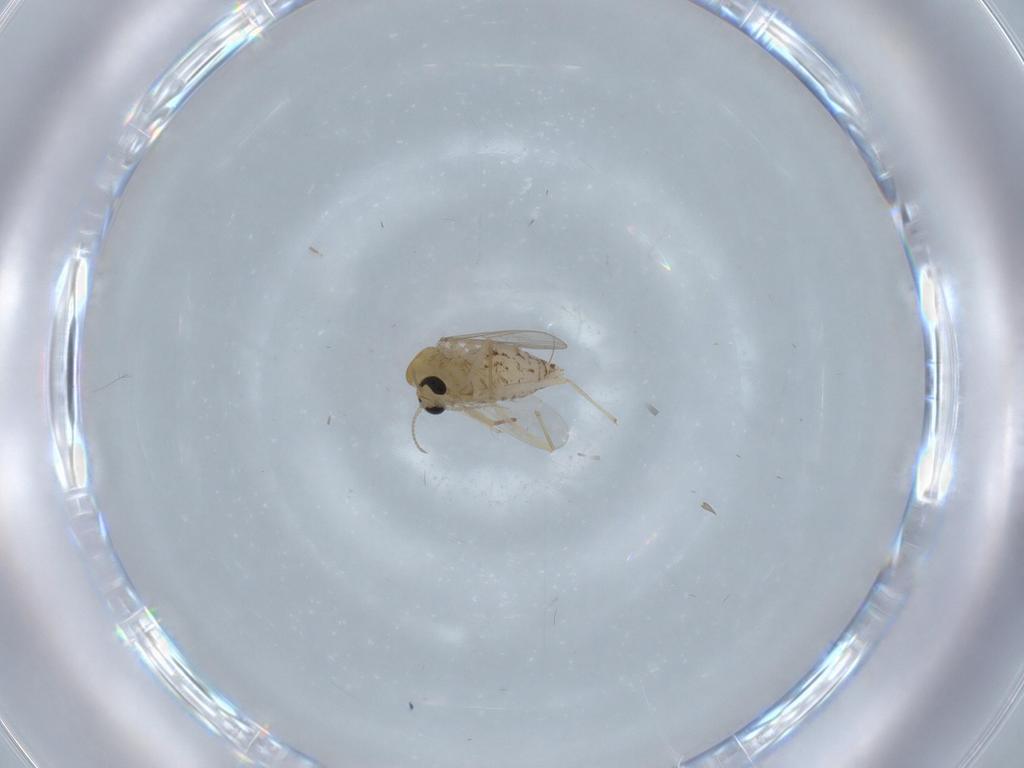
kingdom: Animalia
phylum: Arthropoda
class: Insecta
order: Diptera
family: Chironomidae
